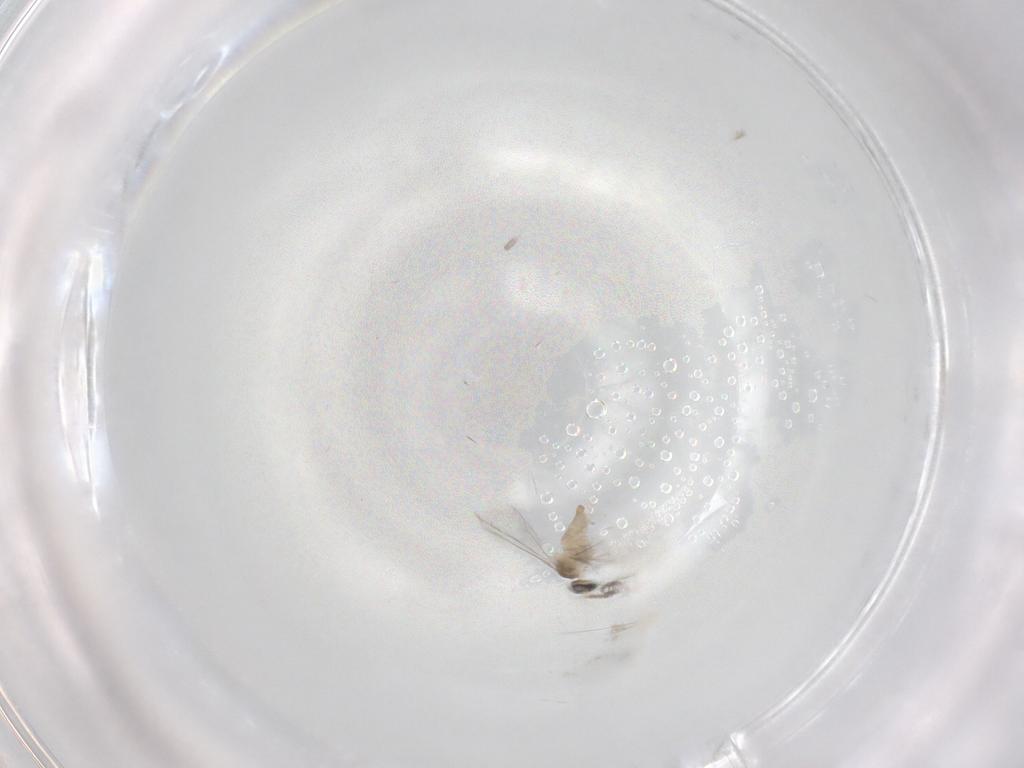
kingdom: Animalia
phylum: Arthropoda
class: Insecta
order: Diptera
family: Cecidomyiidae
